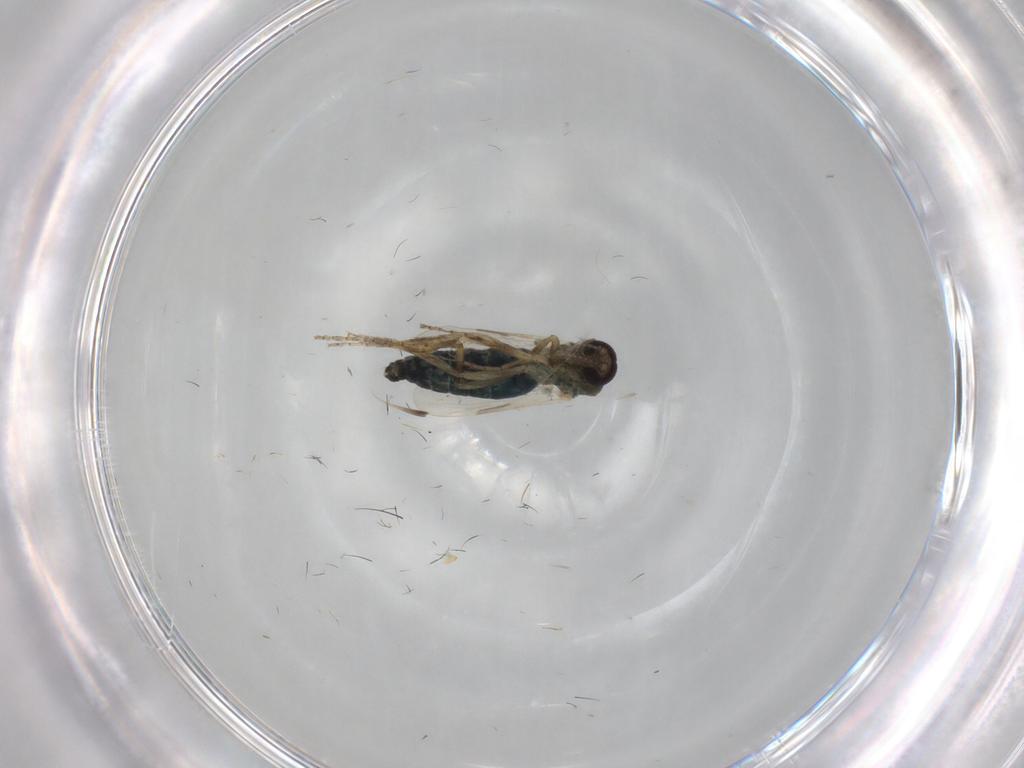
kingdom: Animalia
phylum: Arthropoda
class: Insecta
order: Diptera
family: Ceratopogonidae
